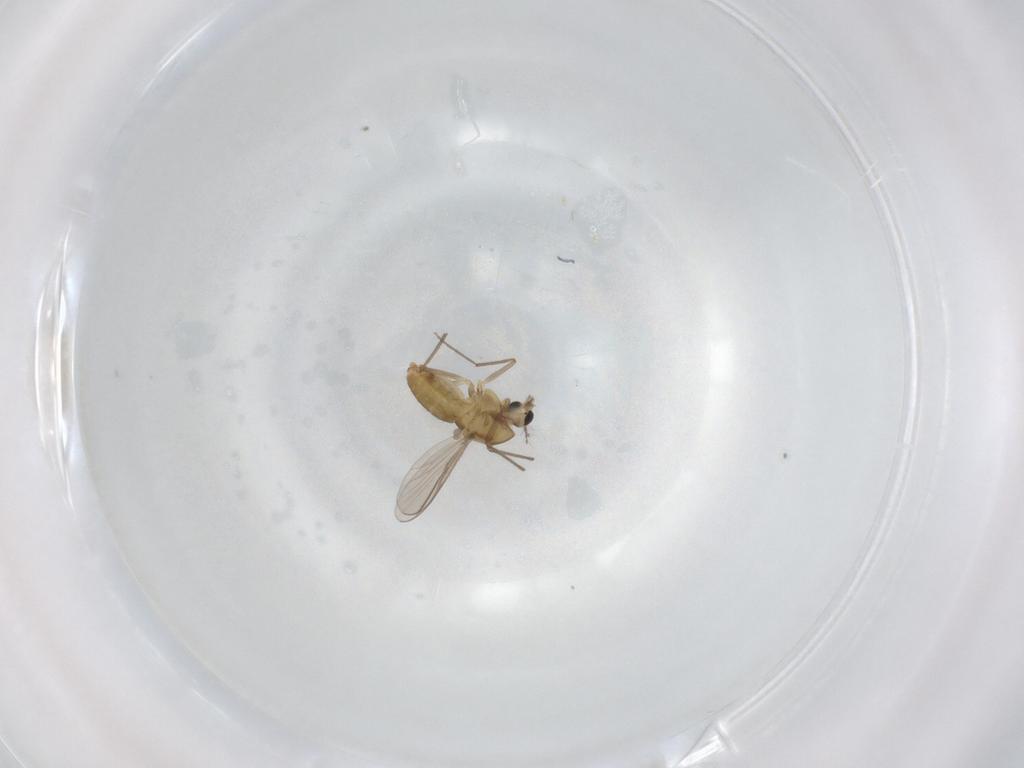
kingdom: Animalia
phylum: Arthropoda
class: Insecta
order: Diptera
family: Chironomidae
